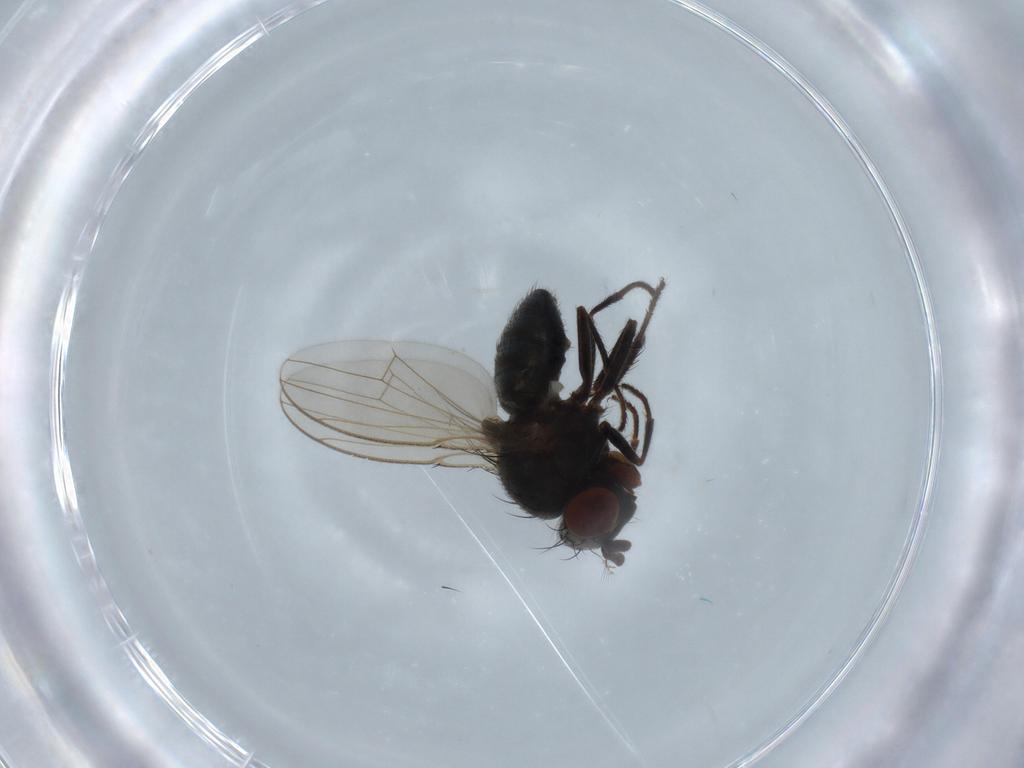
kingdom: Animalia
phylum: Arthropoda
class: Insecta
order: Diptera
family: Ephydridae
